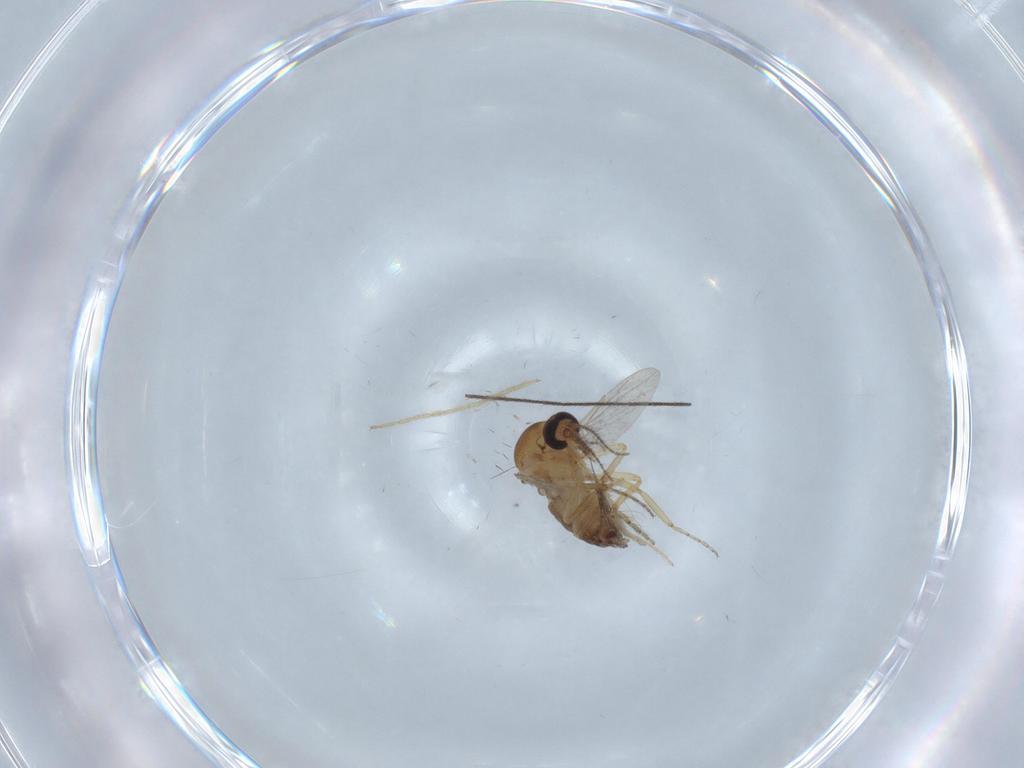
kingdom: Animalia
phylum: Arthropoda
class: Insecta
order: Diptera
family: Ceratopogonidae
